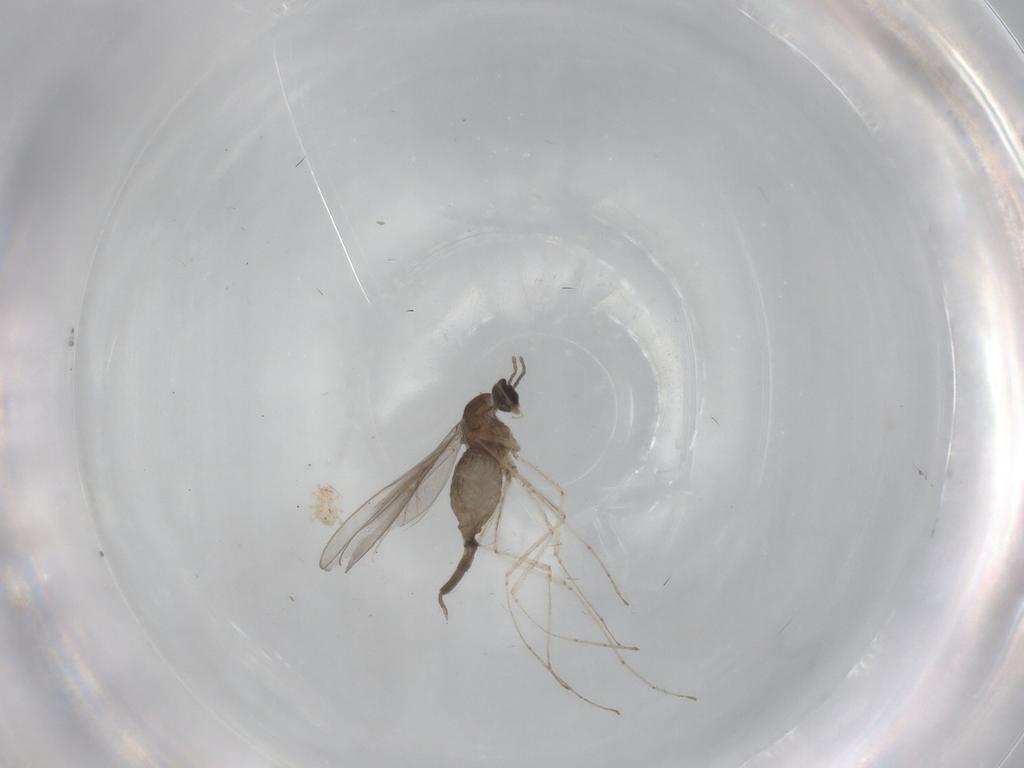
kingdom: Animalia
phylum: Arthropoda
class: Insecta
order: Diptera
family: Cecidomyiidae
